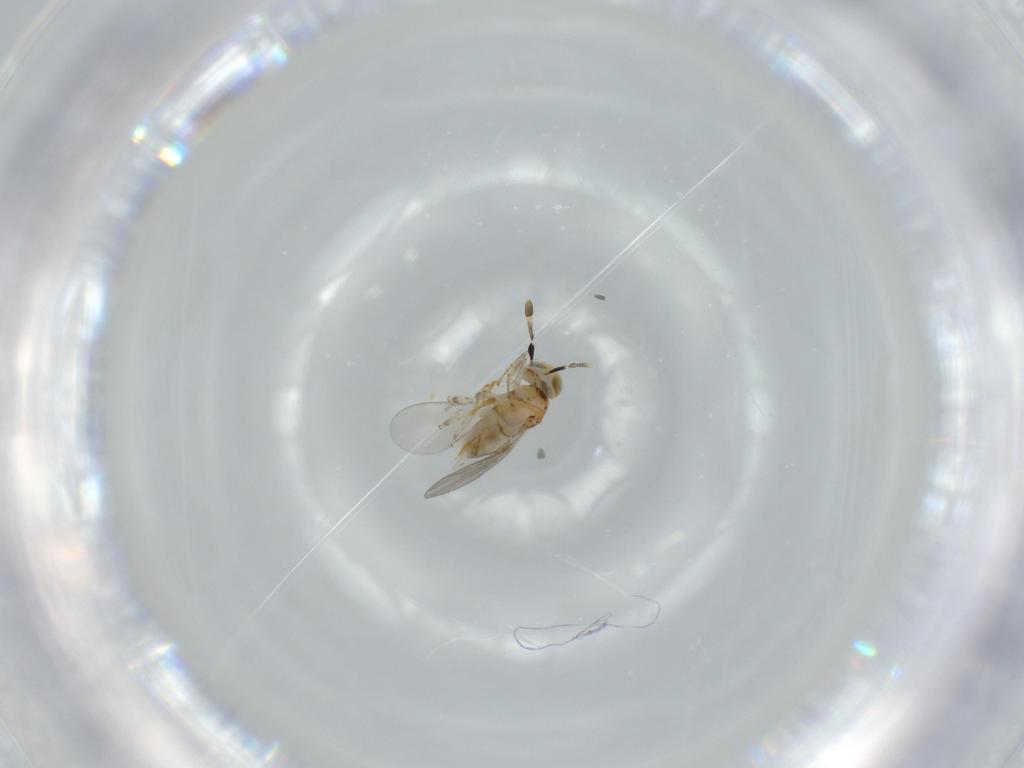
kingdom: Animalia
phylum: Arthropoda
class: Insecta
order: Hymenoptera
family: Encyrtidae
